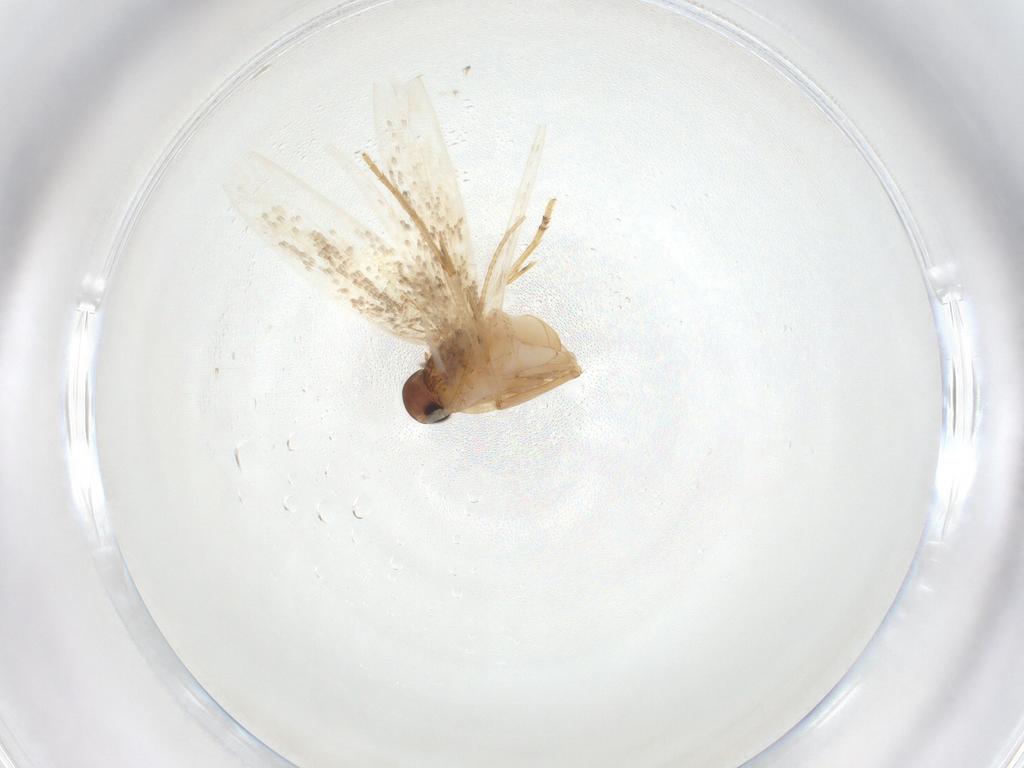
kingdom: Animalia
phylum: Arthropoda
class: Insecta
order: Lepidoptera
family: Cosmopterigidae
